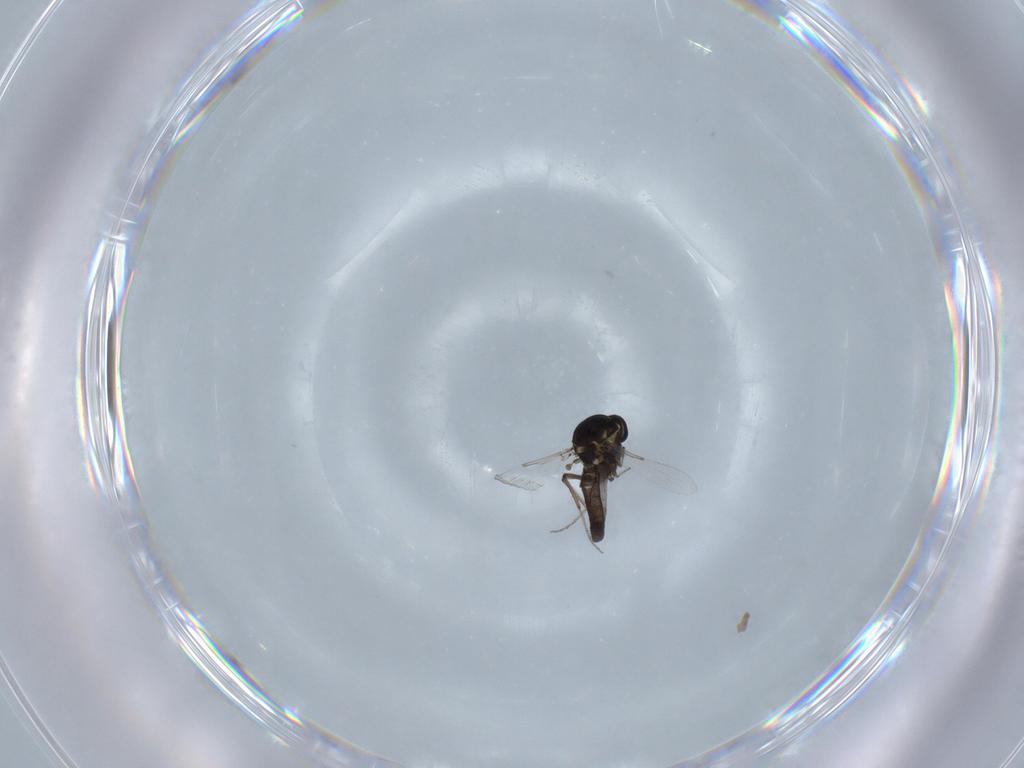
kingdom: Animalia
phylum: Arthropoda
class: Insecta
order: Diptera
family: Ceratopogonidae
